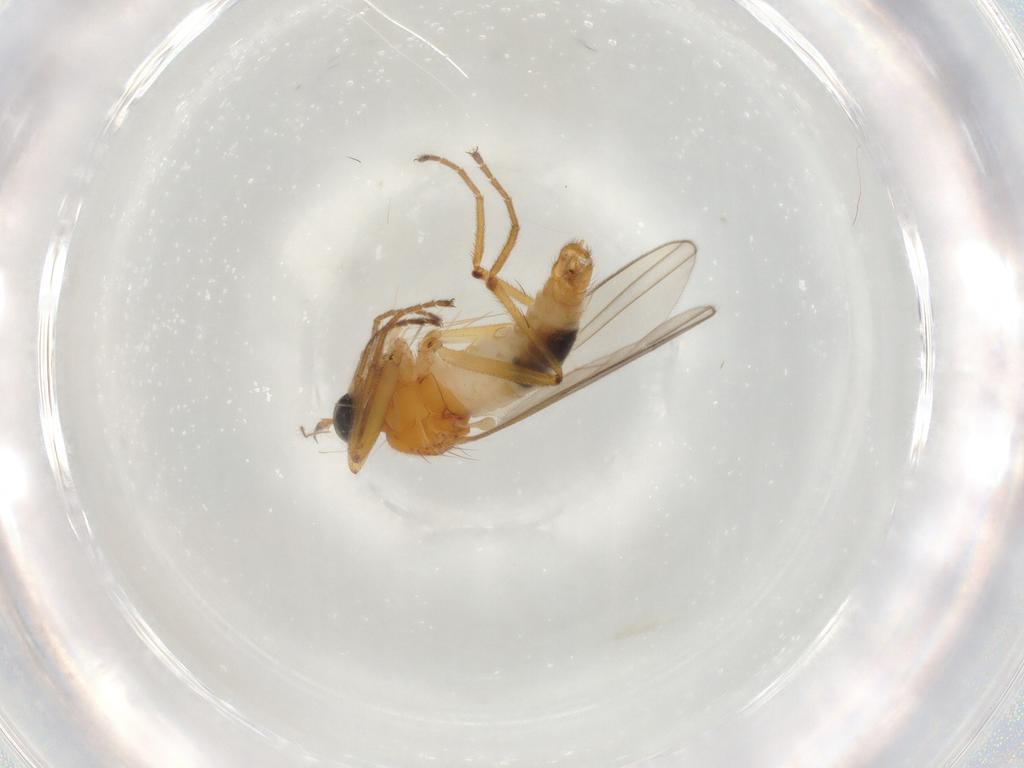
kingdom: Animalia
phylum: Arthropoda
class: Insecta
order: Diptera
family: Hybotidae
